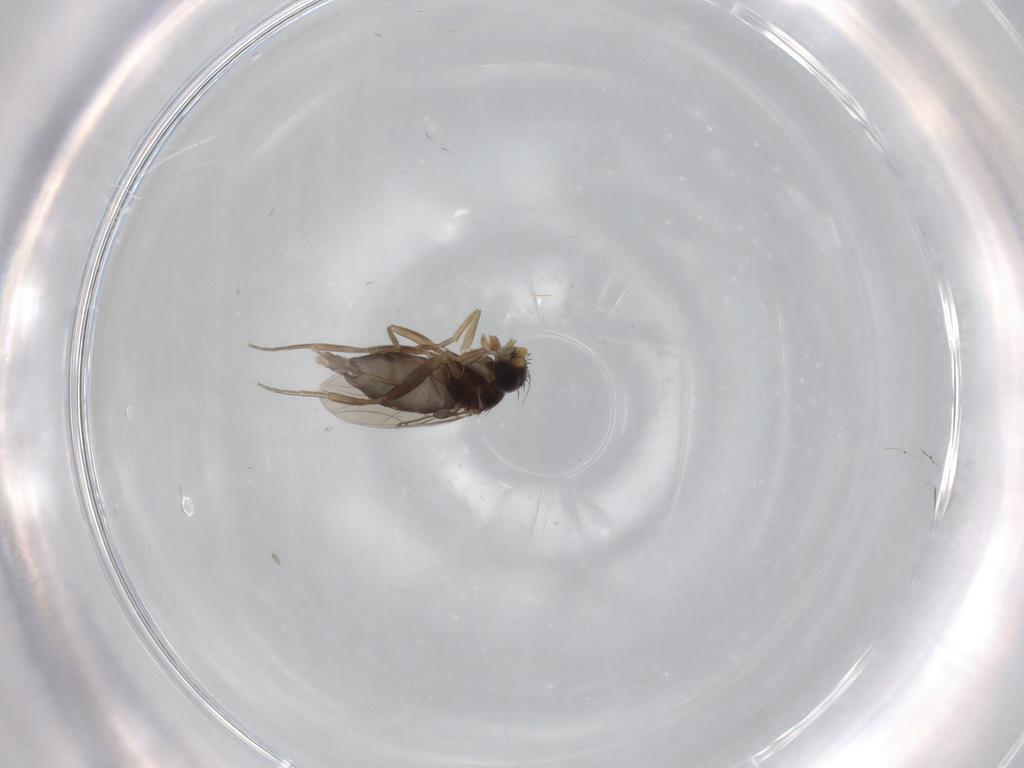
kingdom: Animalia
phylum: Arthropoda
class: Insecta
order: Diptera
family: Phoridae
